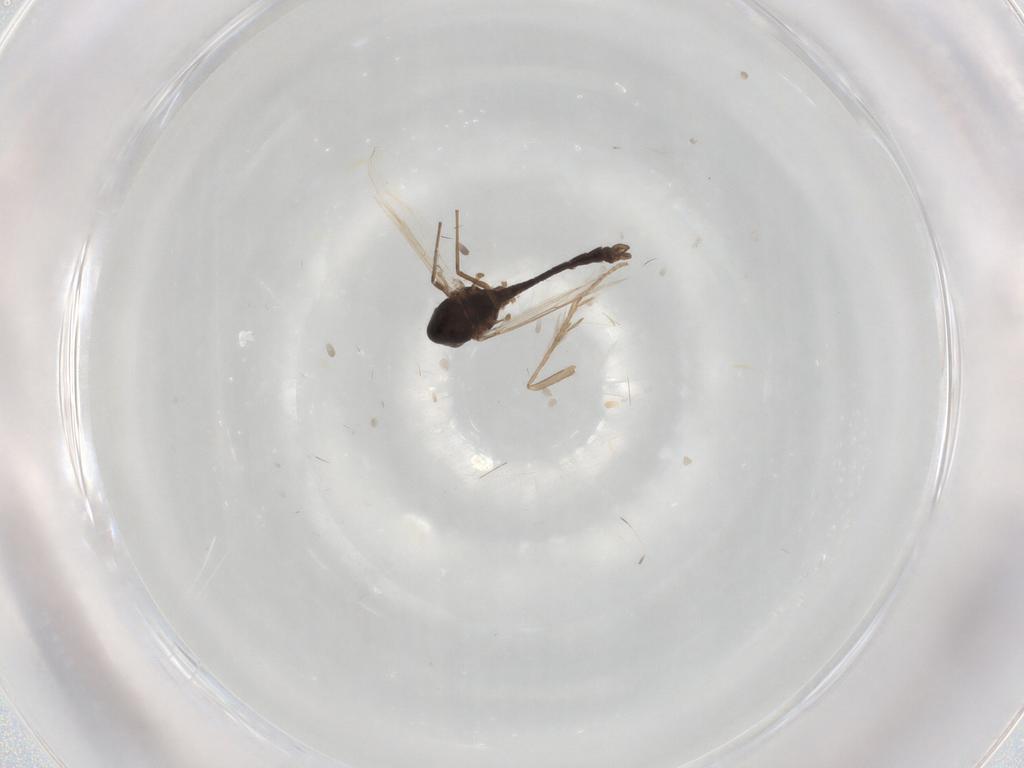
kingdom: Animalia
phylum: Arthropoda
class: Insecta
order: Diptera
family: Chironomidae
